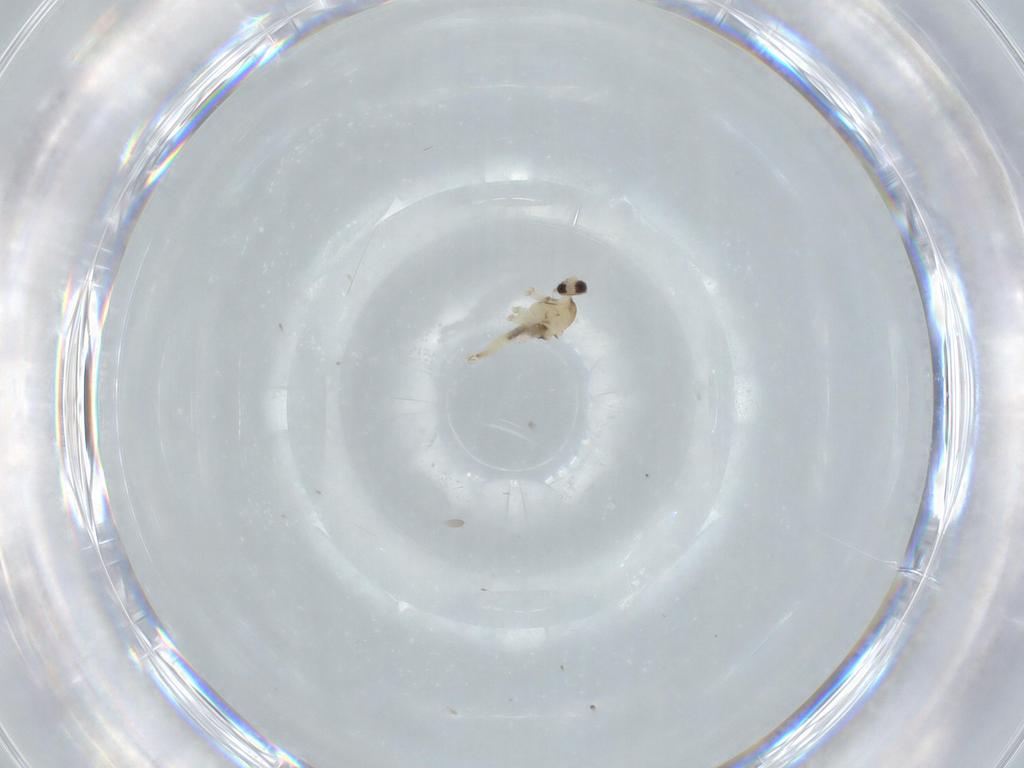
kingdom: Animalia
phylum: Arthropoda
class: Insecta
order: Diptera
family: Cecidomyiidae
